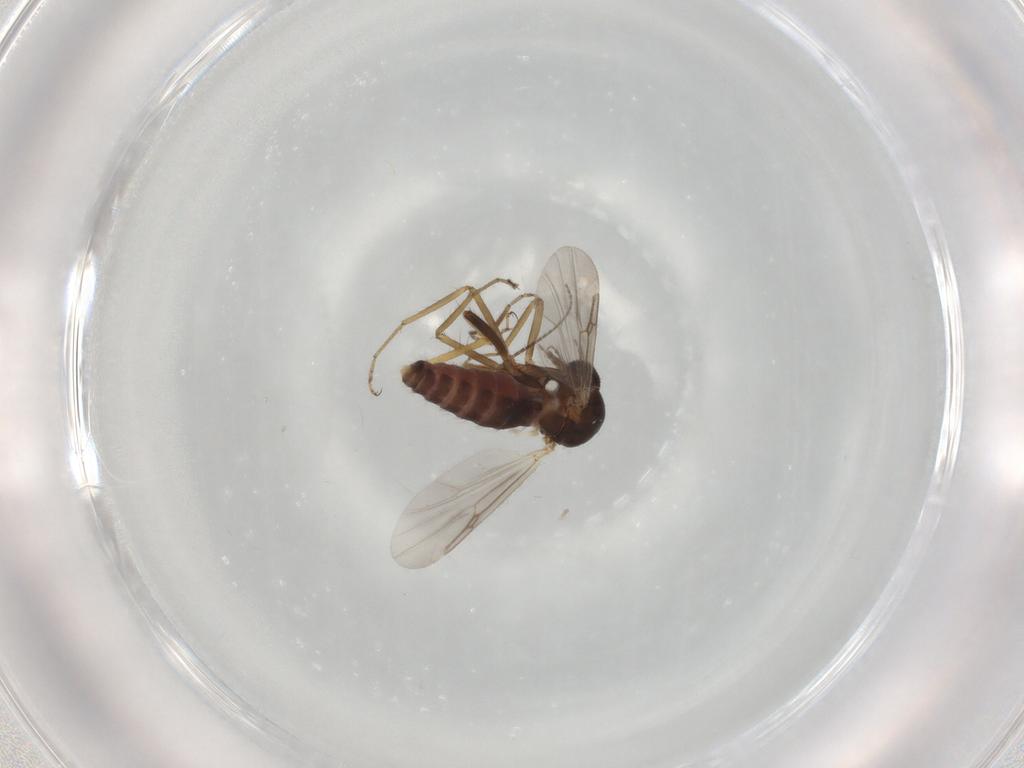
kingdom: Animalia
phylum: Arthropoda
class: Insecta
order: Diptera
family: Ceratopogonidae
